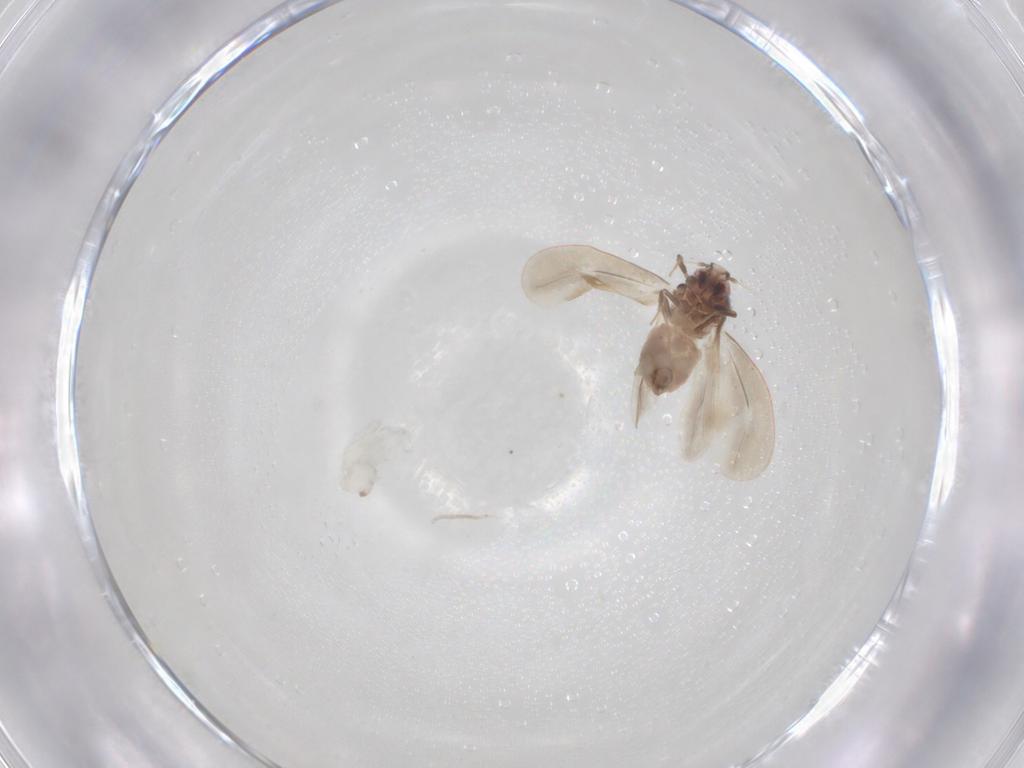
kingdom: Animalia
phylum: Arthropoda
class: Insecta
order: Hemiptera
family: Aleyrodidae
